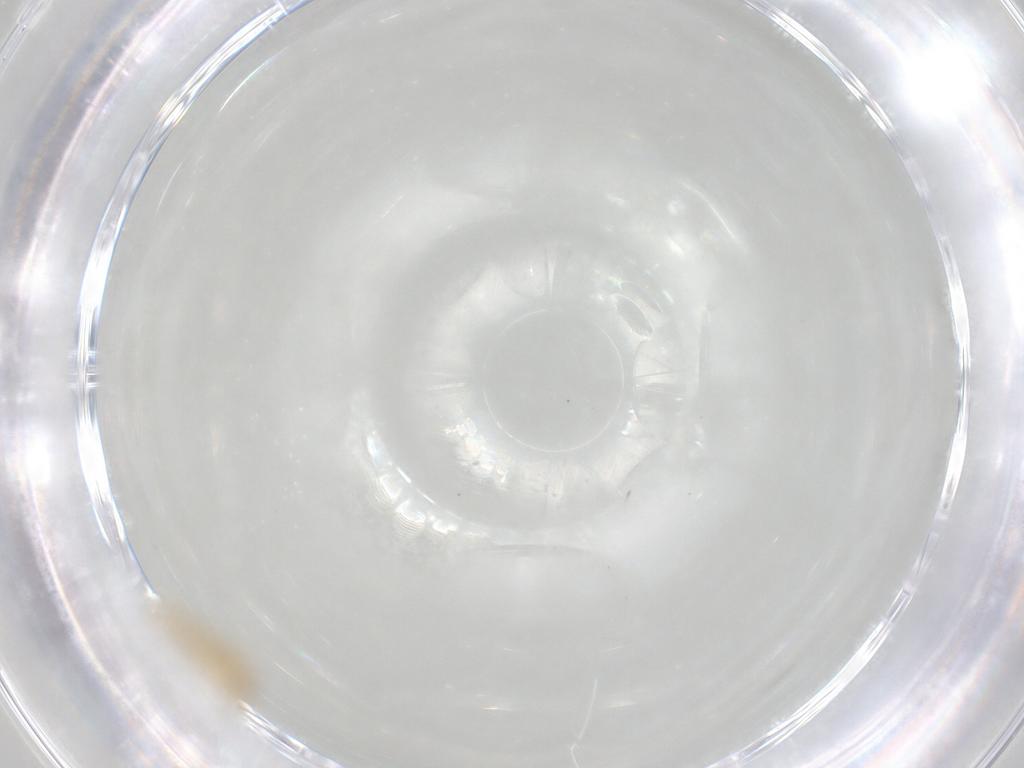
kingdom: Animalia
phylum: Arthropoda
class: Insecta
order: Lepidoptera
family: Gelechiidae
